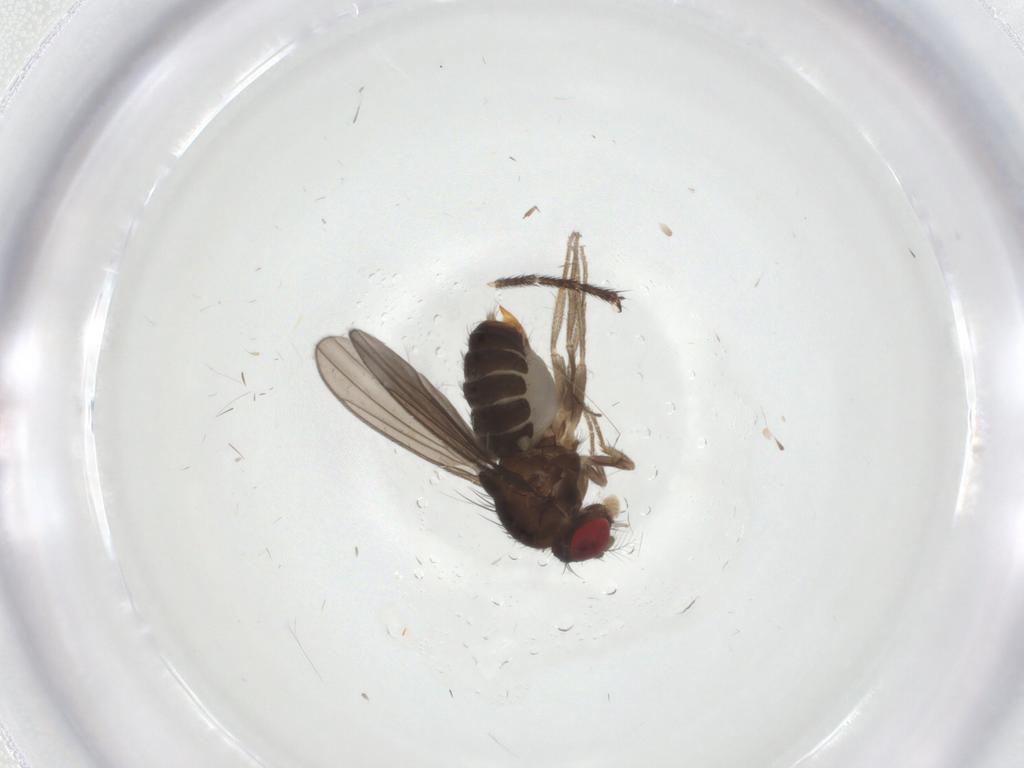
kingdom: Animalia
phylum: Arthropoda
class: Insecta
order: Diptera
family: Drosophilidae
